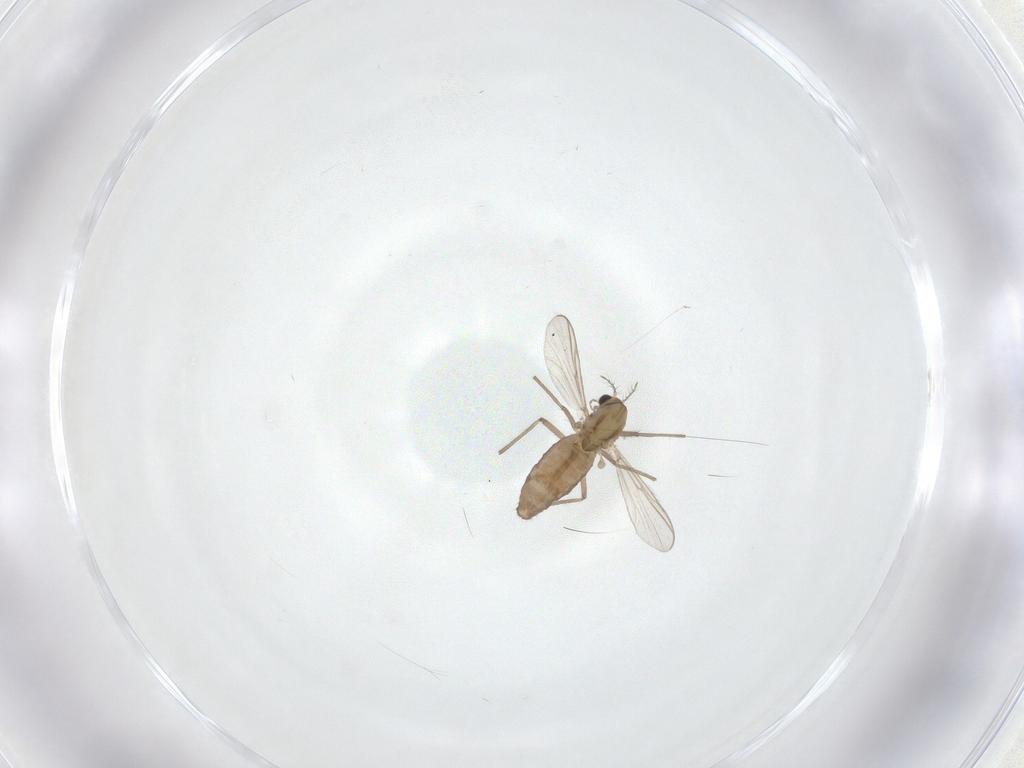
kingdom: Animalia
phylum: Arthropoda
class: Insecta
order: Diptera
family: Chironomidae
